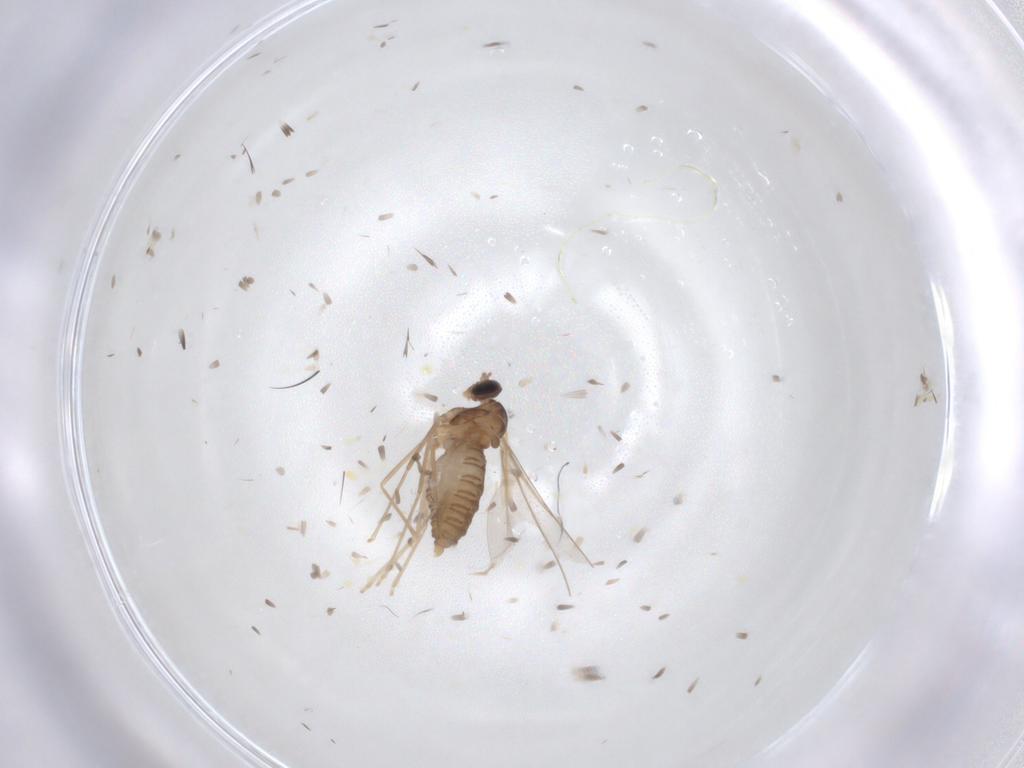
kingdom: Animalia
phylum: Arthropoda
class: Insecta
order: Diptera
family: Cecidomyiidae
